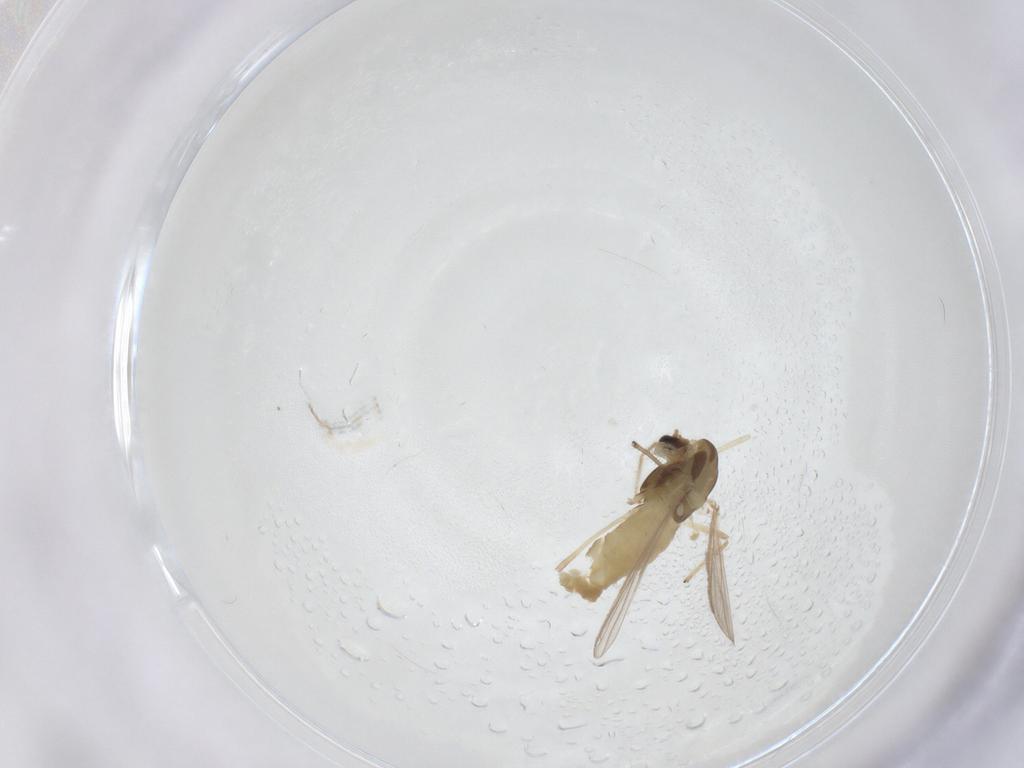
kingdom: Animalia
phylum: Arthropoda
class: Insecta
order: Diptera
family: Chironomidae
